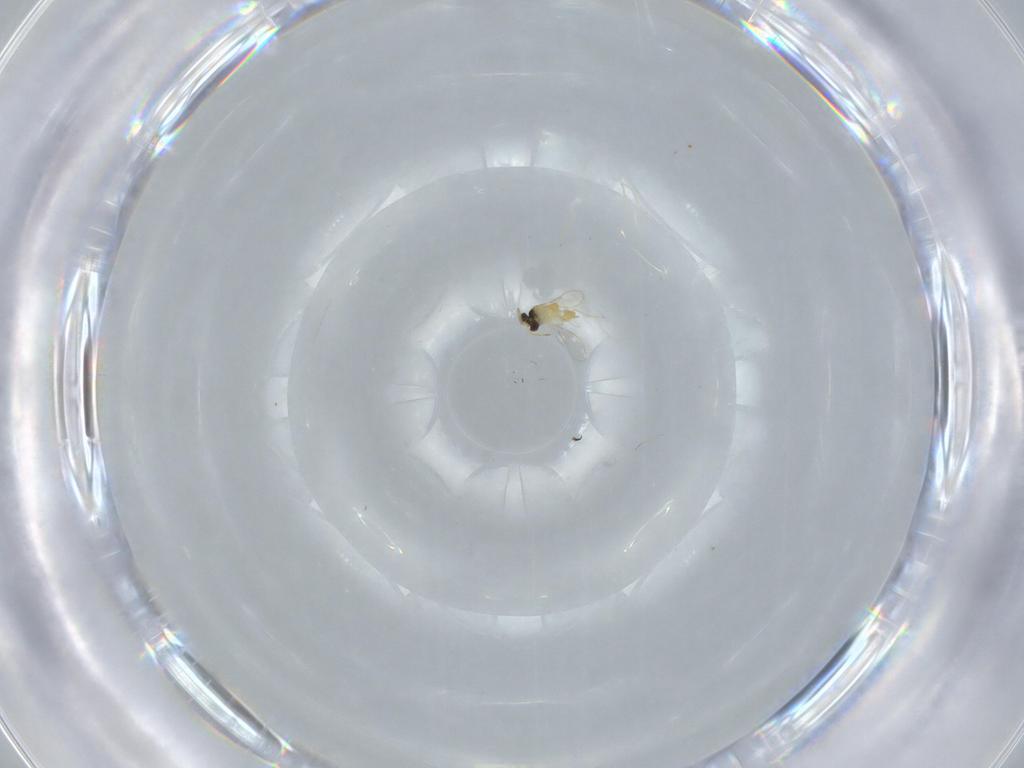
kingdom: Animalia
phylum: Arthropoda
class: Insecta
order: Hymenoptera
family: Aphelinidae
